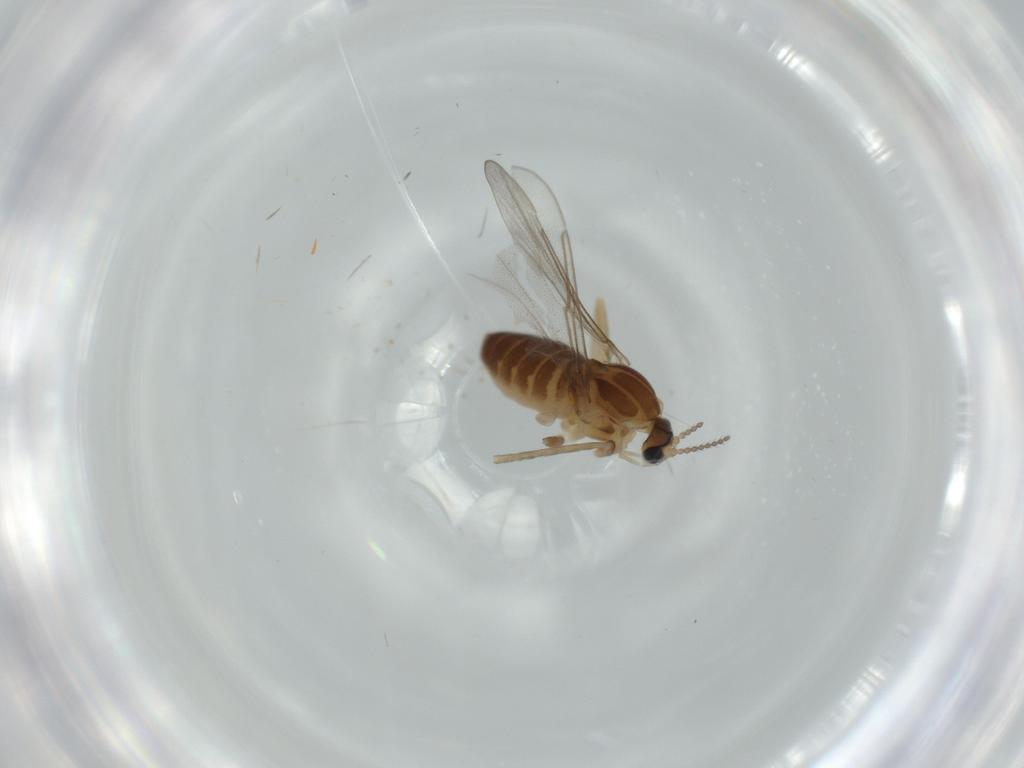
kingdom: Animalia
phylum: Arthropoda
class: Insecta
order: Diptera
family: Cecidomyiidae
